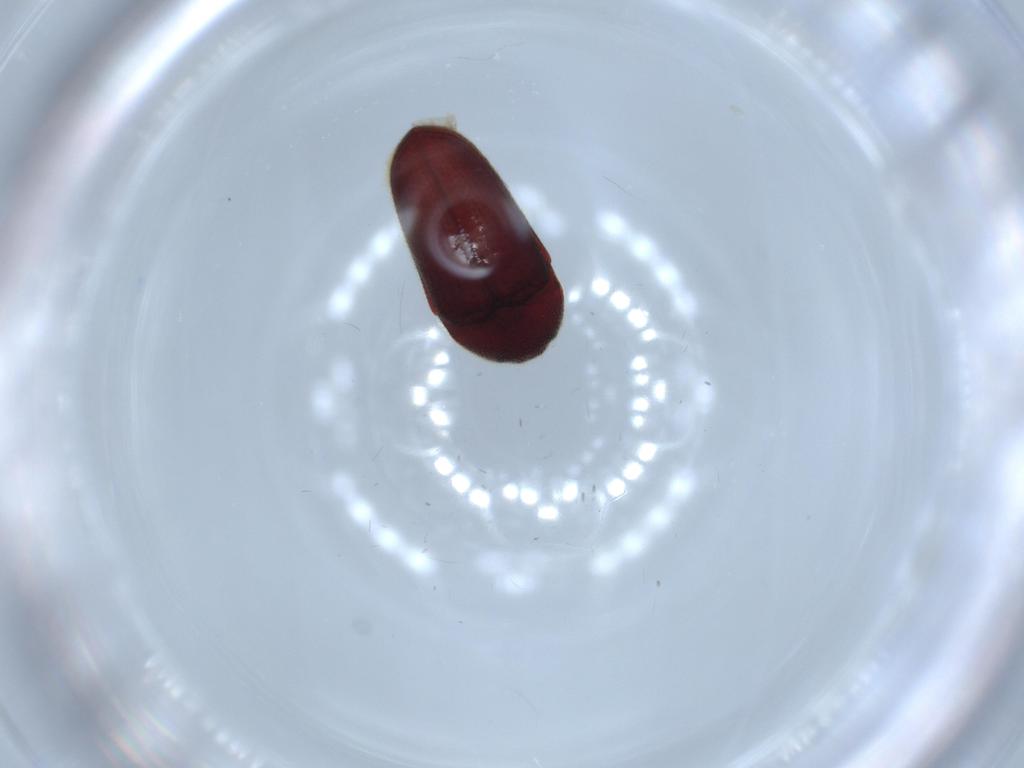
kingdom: Animalia
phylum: Arthropoda
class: Insecta
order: Coleoptera
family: Throscidae
